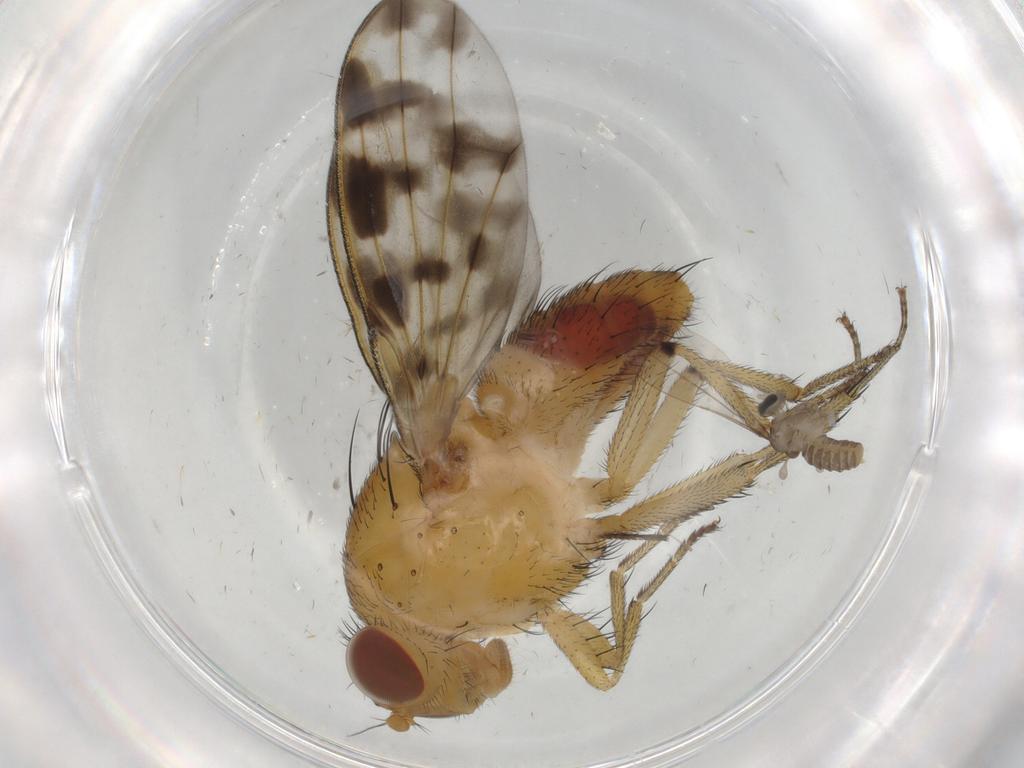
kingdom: Animalia
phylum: Arthropoda
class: Insecta
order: Diptera
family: Cecidomyiidae
